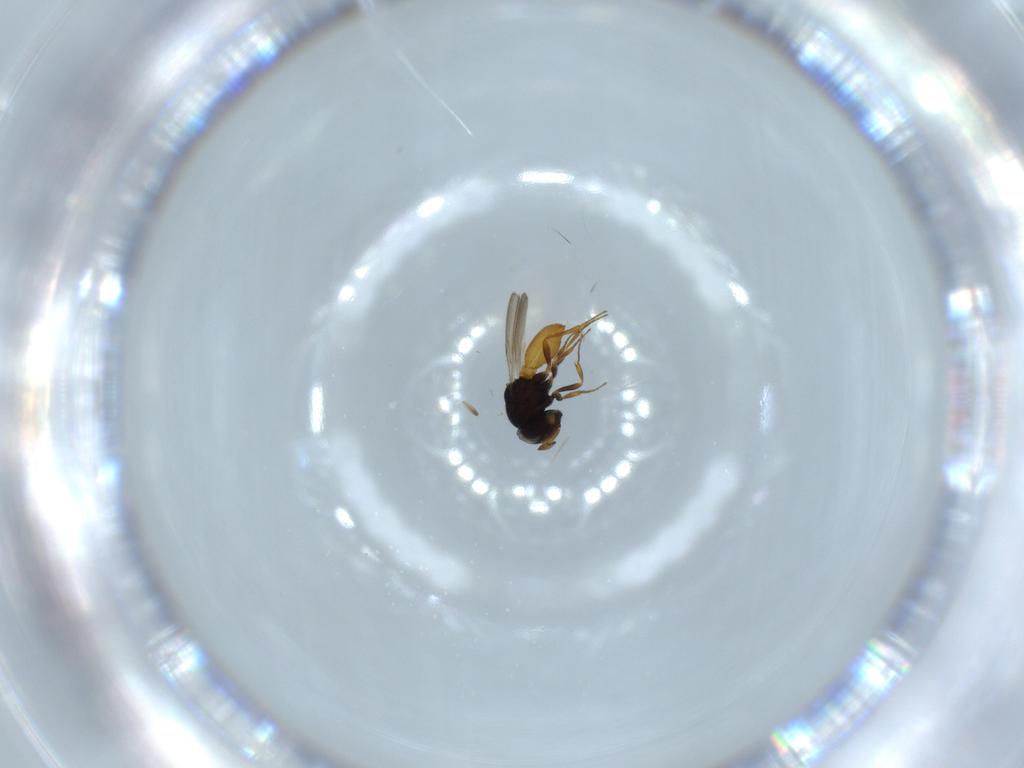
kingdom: Animalia
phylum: Arthropoda
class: Insecta
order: Hymenoptera
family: Scelionidae
